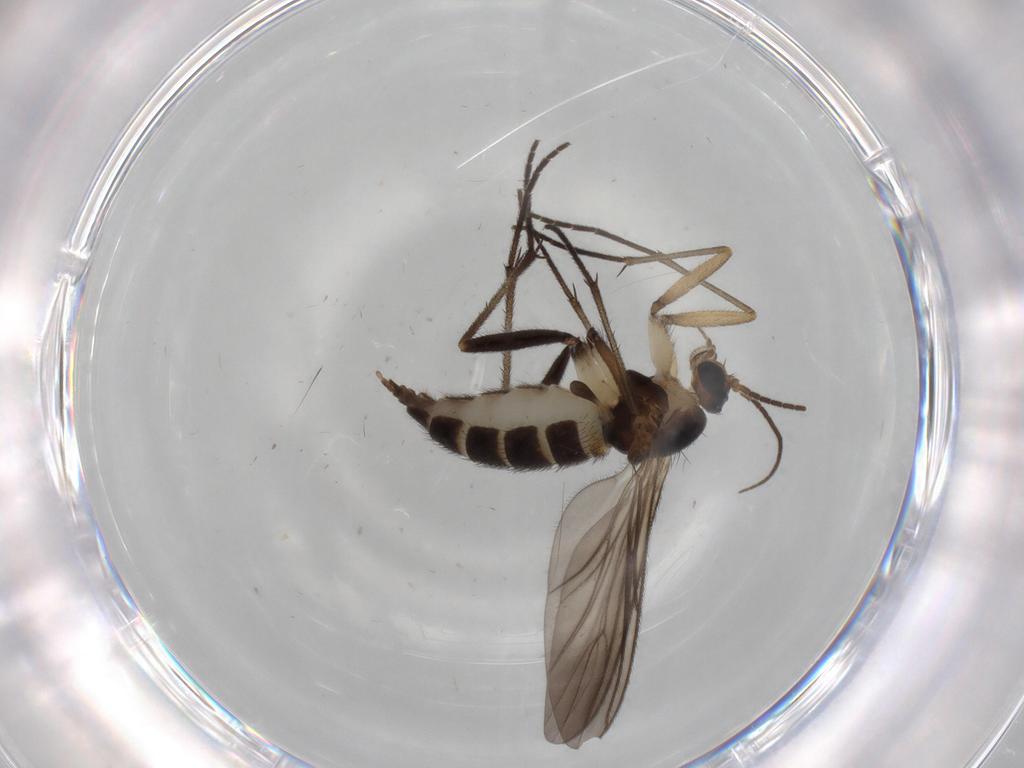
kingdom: Animalia
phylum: Arthropoda
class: Insecta
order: Diptera
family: Sciaridae
